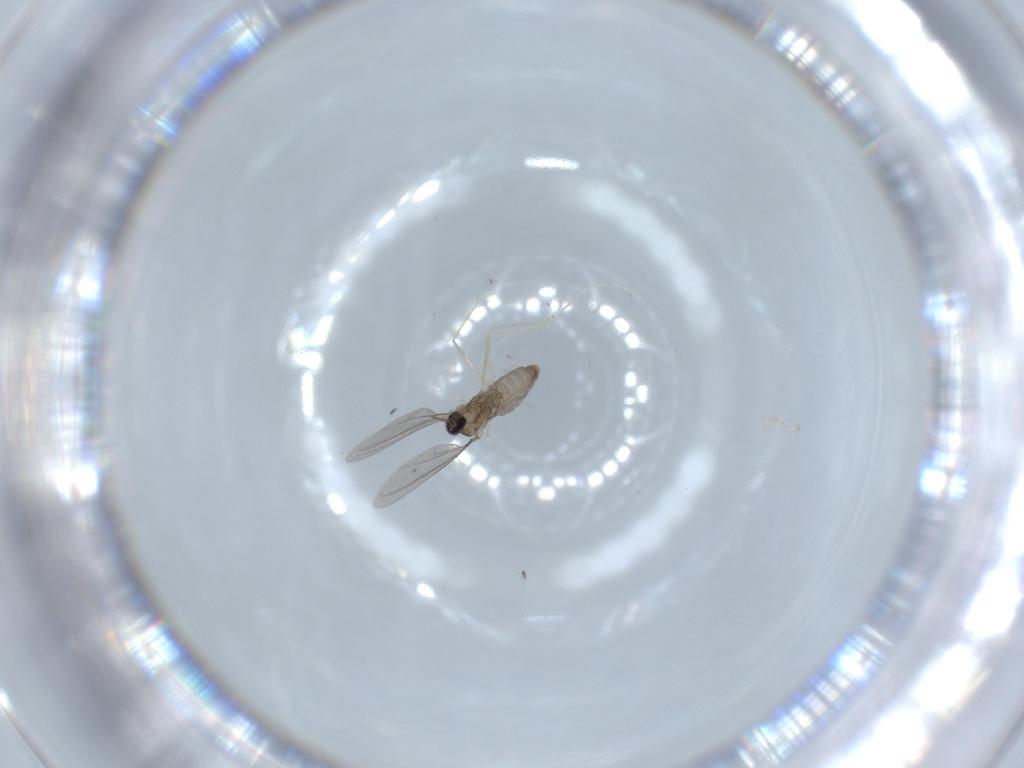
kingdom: Animalia
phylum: Arthropoda
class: Insecta
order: Diptera
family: Cecidomyiidae
